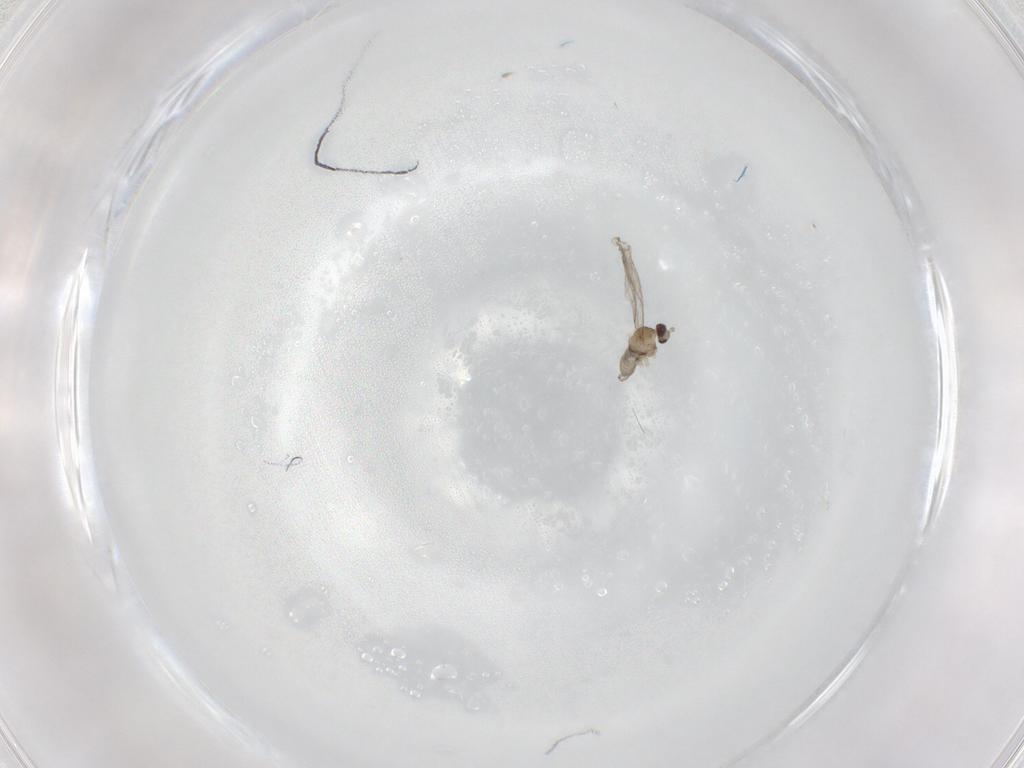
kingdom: Animalia
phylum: Arthropoda
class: Insecta
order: Diptera
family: Cecidomyiidae
